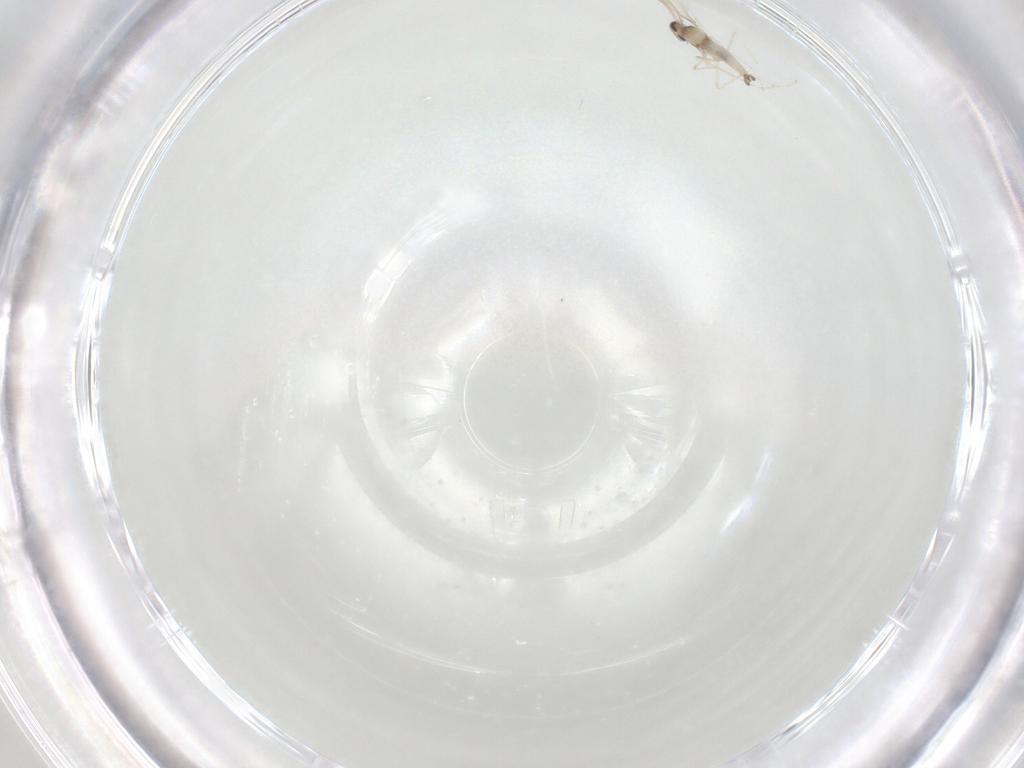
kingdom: Animalia
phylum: Arthropoda
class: Insecta
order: Diptera
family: Cecidomyiidae
